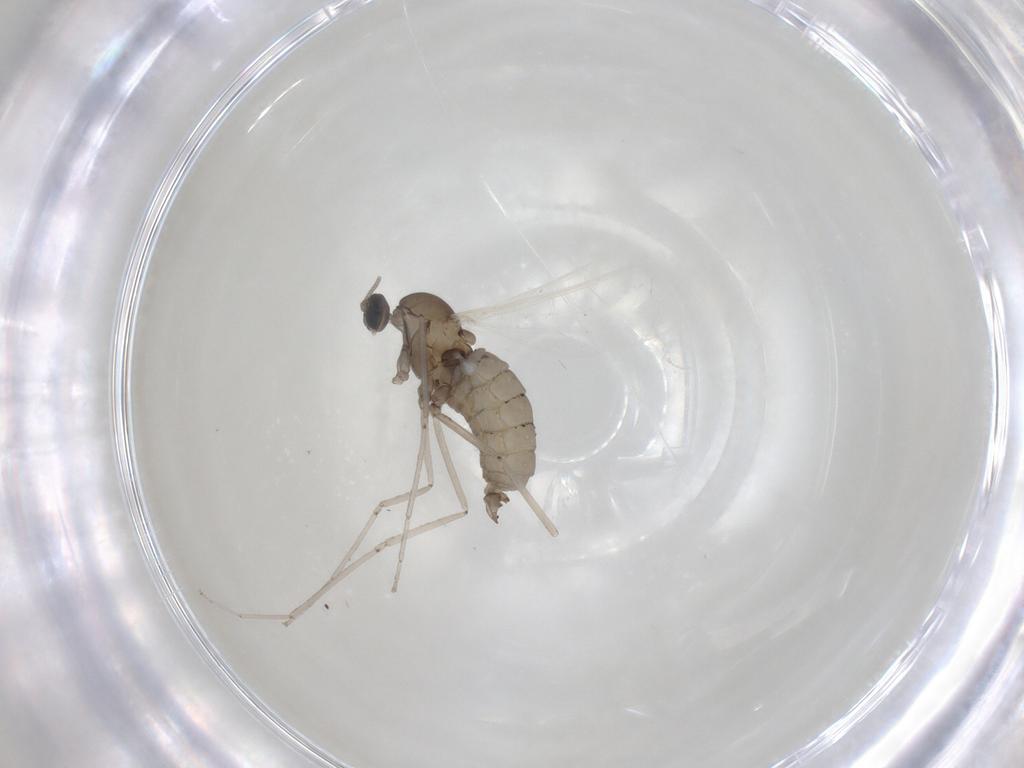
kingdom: Animalia
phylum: Arthropoda
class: Insecta
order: Diptera
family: Cecidomyiidae
